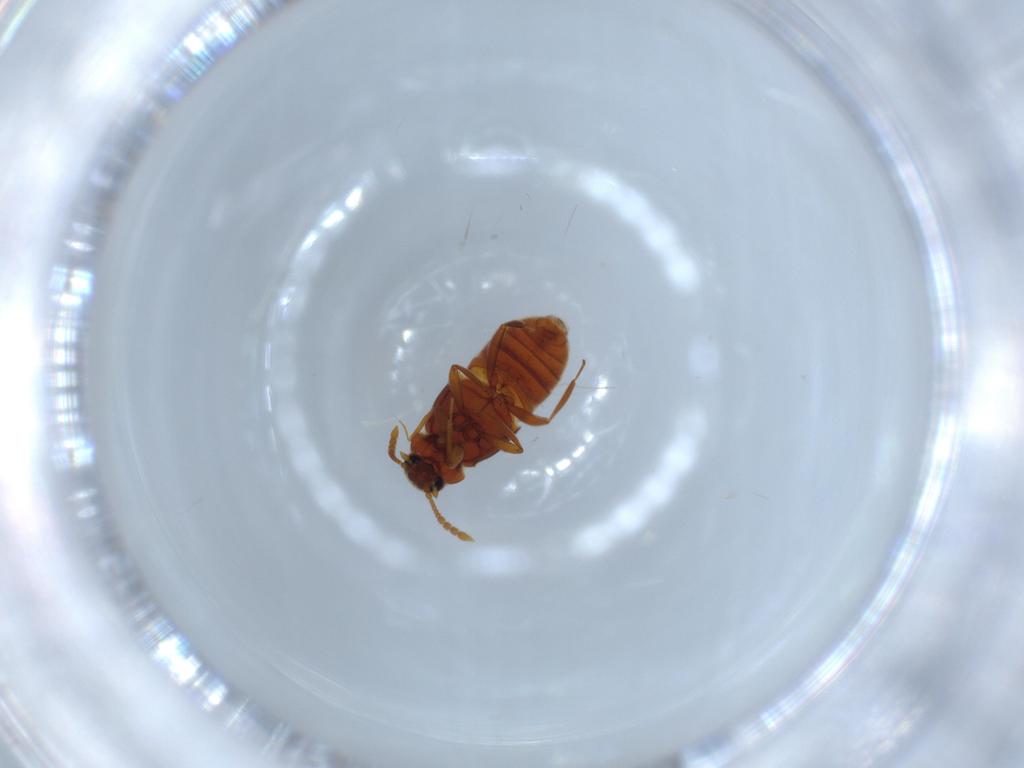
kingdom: Animalia
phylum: Arthropoda
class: Insecta
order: Coleoptera
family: Staphylinidae
